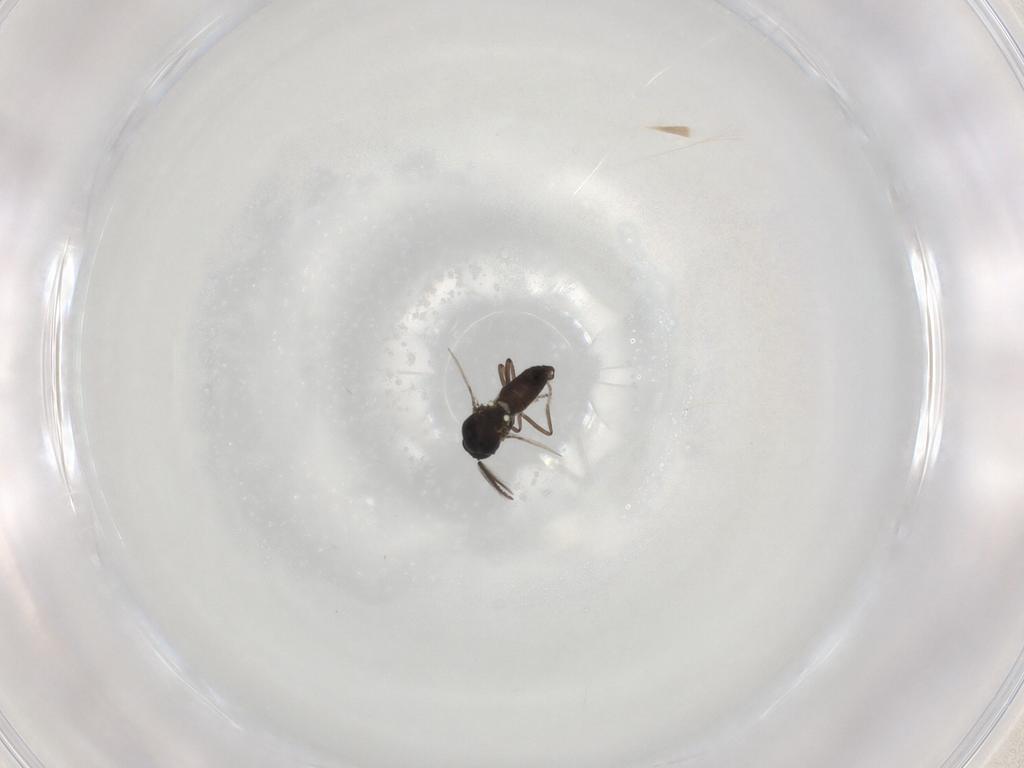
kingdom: Animalia
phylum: Arthropoda
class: Insecta
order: Diptera
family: Ceratopogonidae
